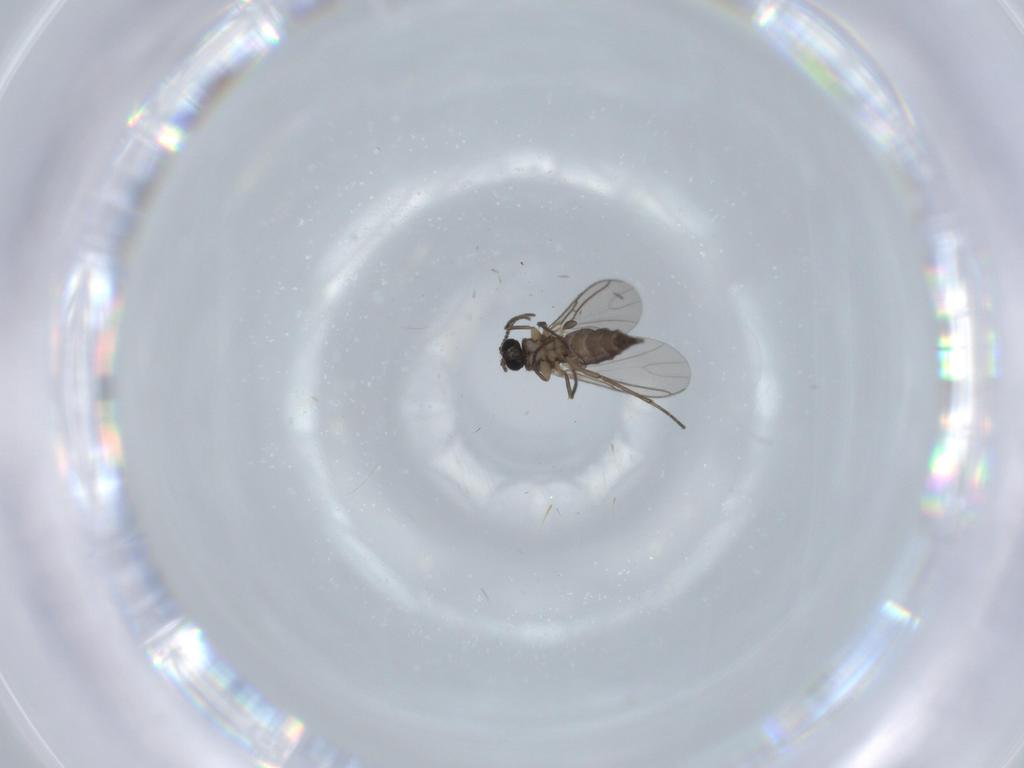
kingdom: Animalia
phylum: Arthropoda
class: Insecta
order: Diptera
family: Sciaridae
